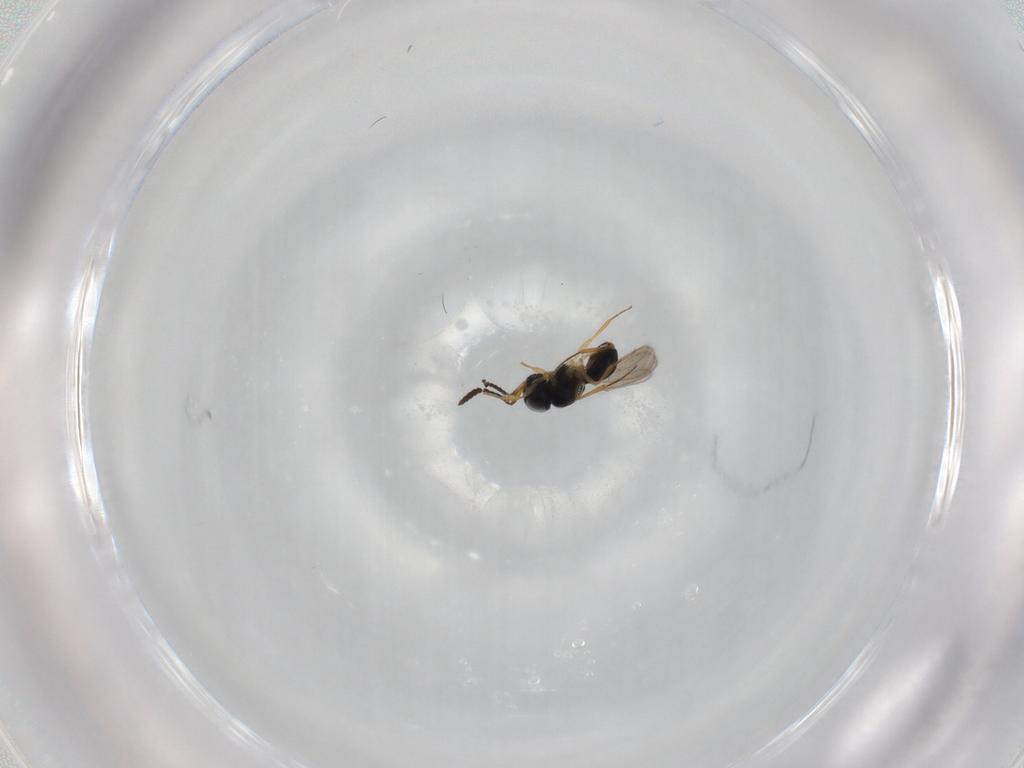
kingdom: Animalia
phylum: Arthropoda
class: Insecta
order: Hymenoptera
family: Scelionidae
